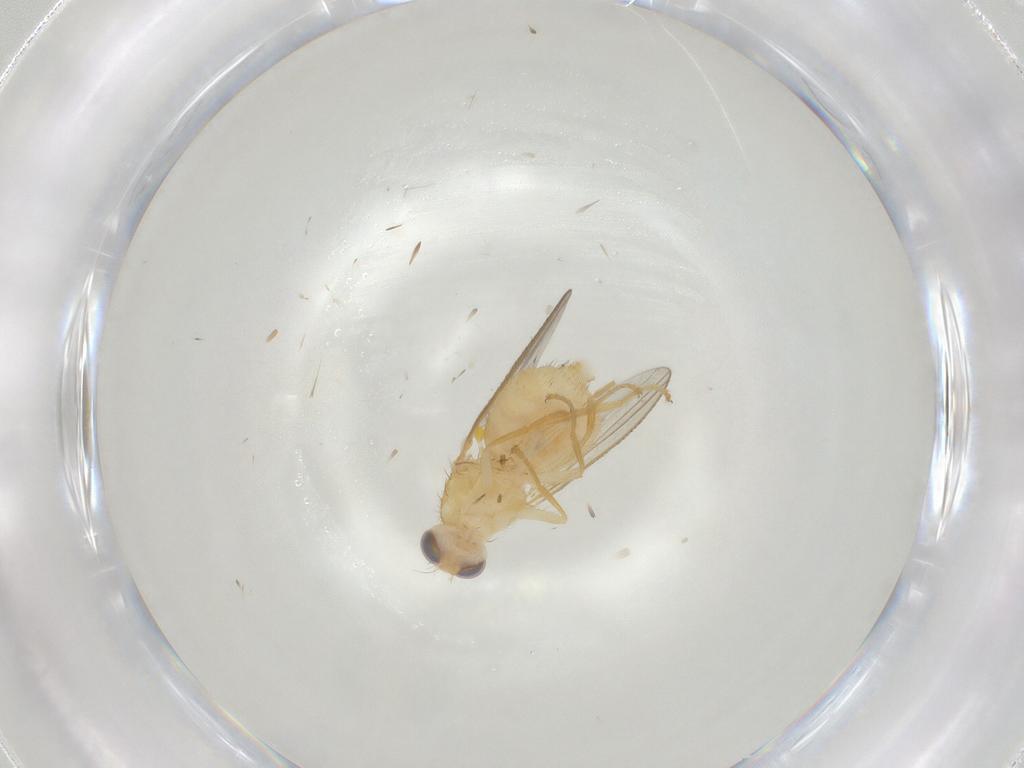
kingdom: Animalia
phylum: Arthropoda
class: Insecta
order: Diptera
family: Chyromyidae
